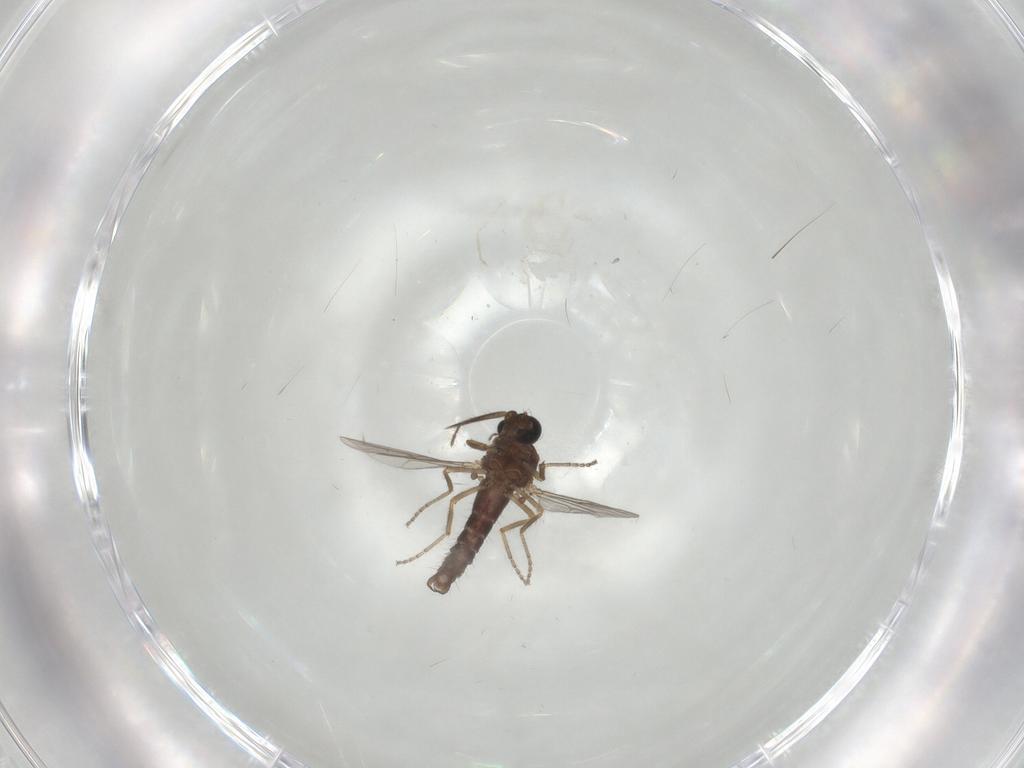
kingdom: Animalia
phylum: Arthropoda
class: Insecta
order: Diptera
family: Ceratopogonidae
